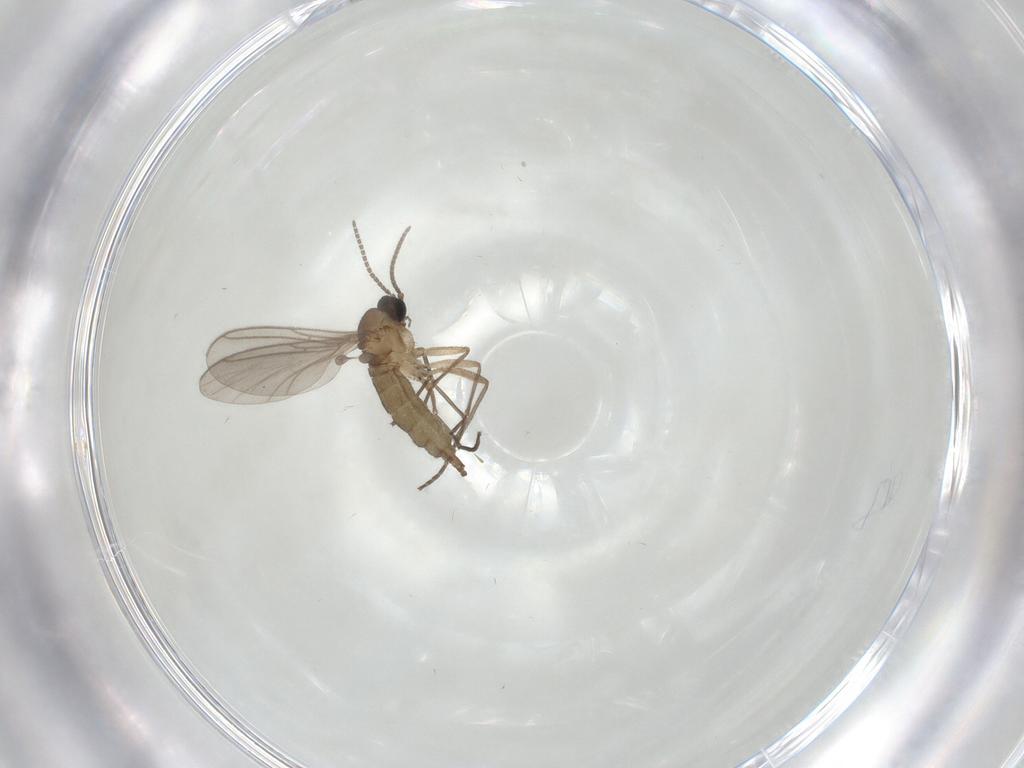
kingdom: Animalia
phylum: Arthropoda
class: Insecta
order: Diptera
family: Sciaridae
